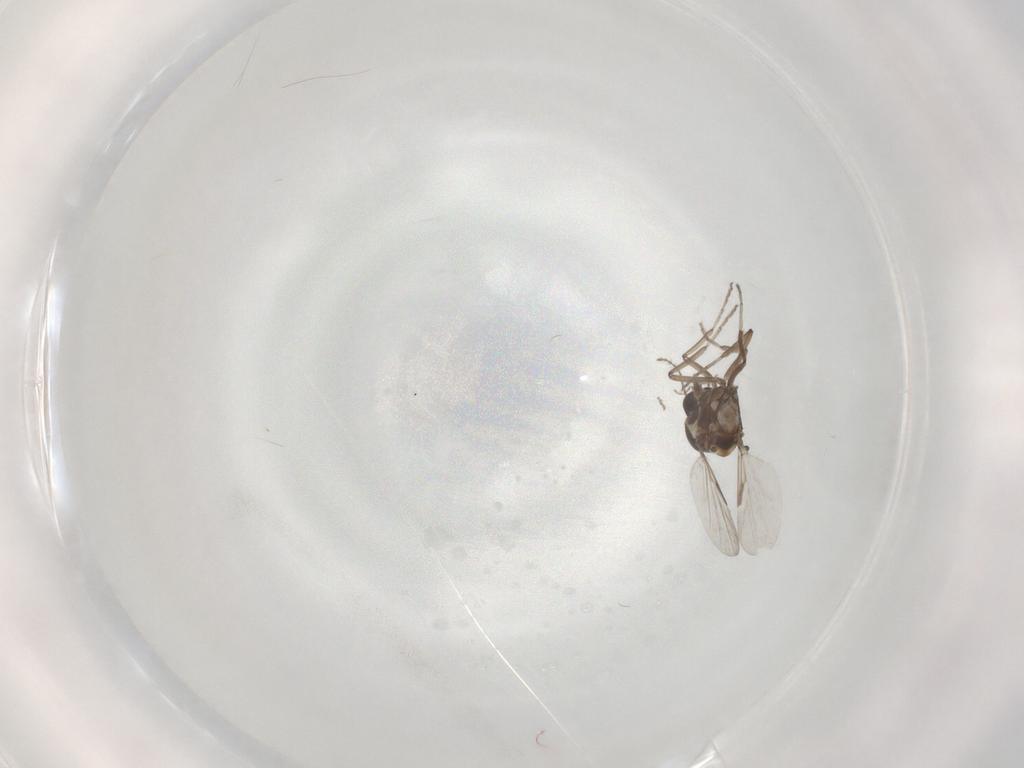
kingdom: Animalia
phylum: Arthropoda
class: Insecta
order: Diptera
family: Ceratopogonidae
